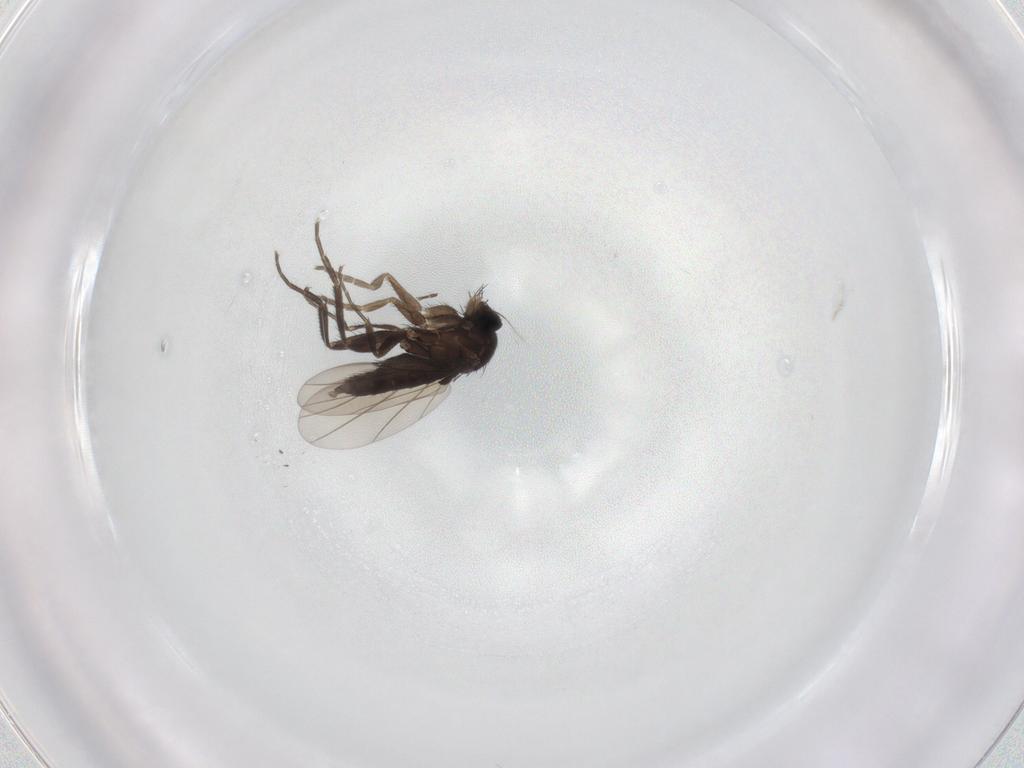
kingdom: Animalia
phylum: Arthropoda
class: Insecta
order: Diptera
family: Phoridae
